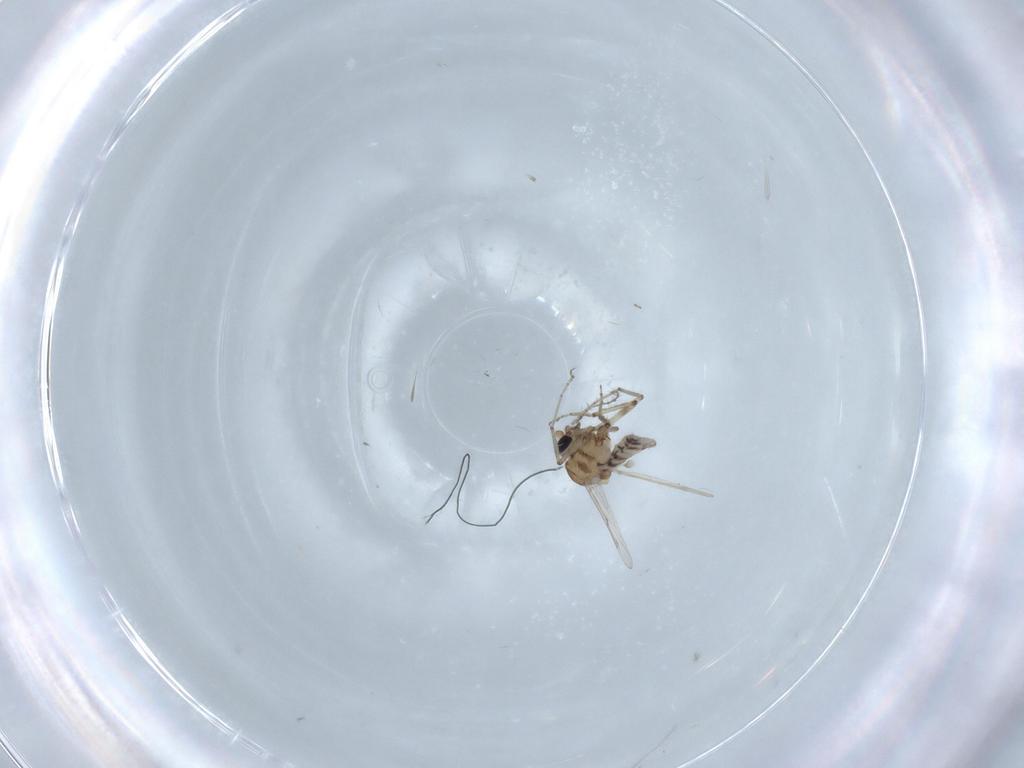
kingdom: Animalia
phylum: Arthropoda
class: Insecta
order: Diptera
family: Ceratopogonidae
